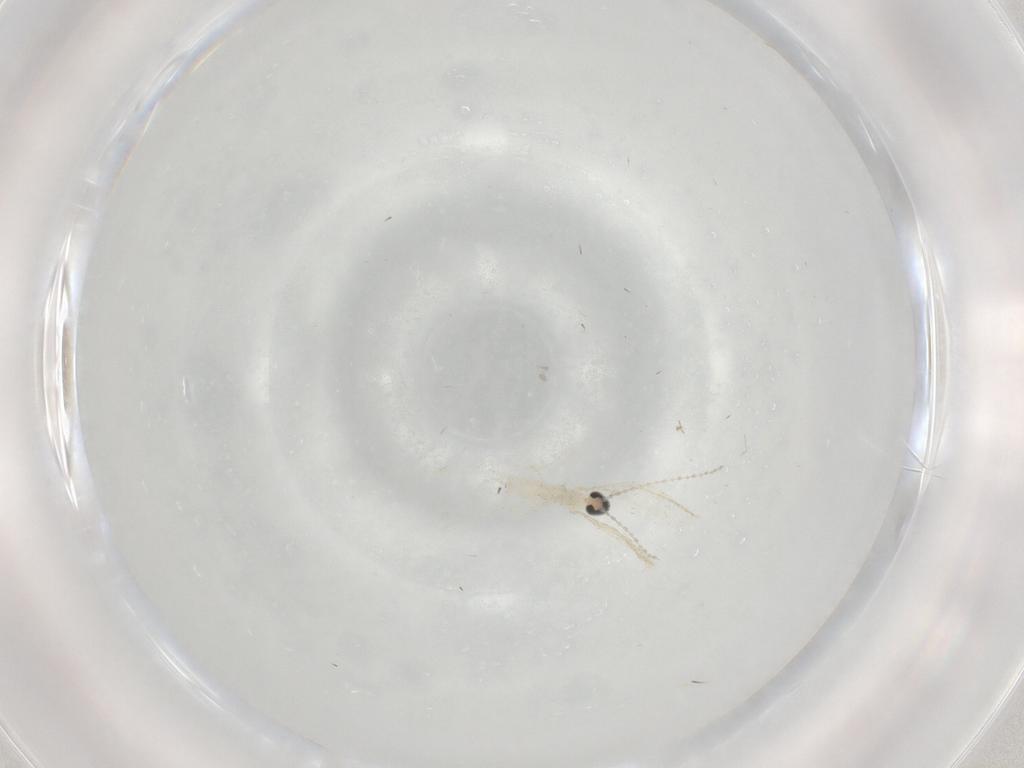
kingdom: Animalia
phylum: Arthropoda
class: Insecta
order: Diptera
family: Cecidomyiidae
